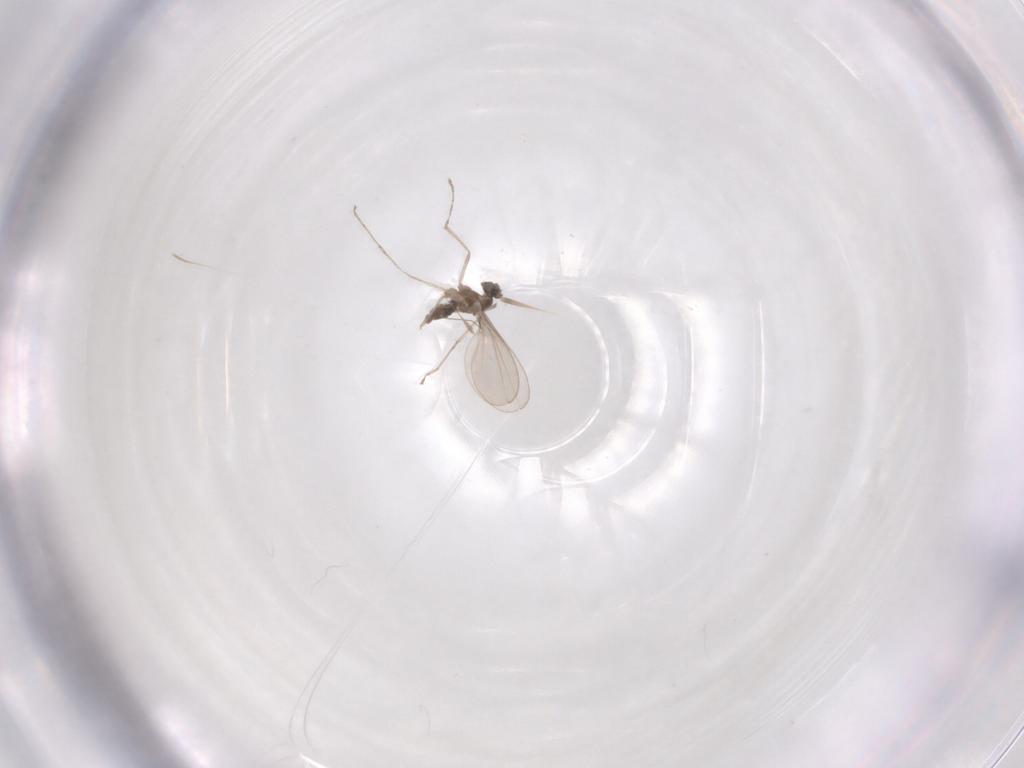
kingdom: Animalia
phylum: Arthropoda
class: Insecta
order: Diptera
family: Cecidomyiidae
